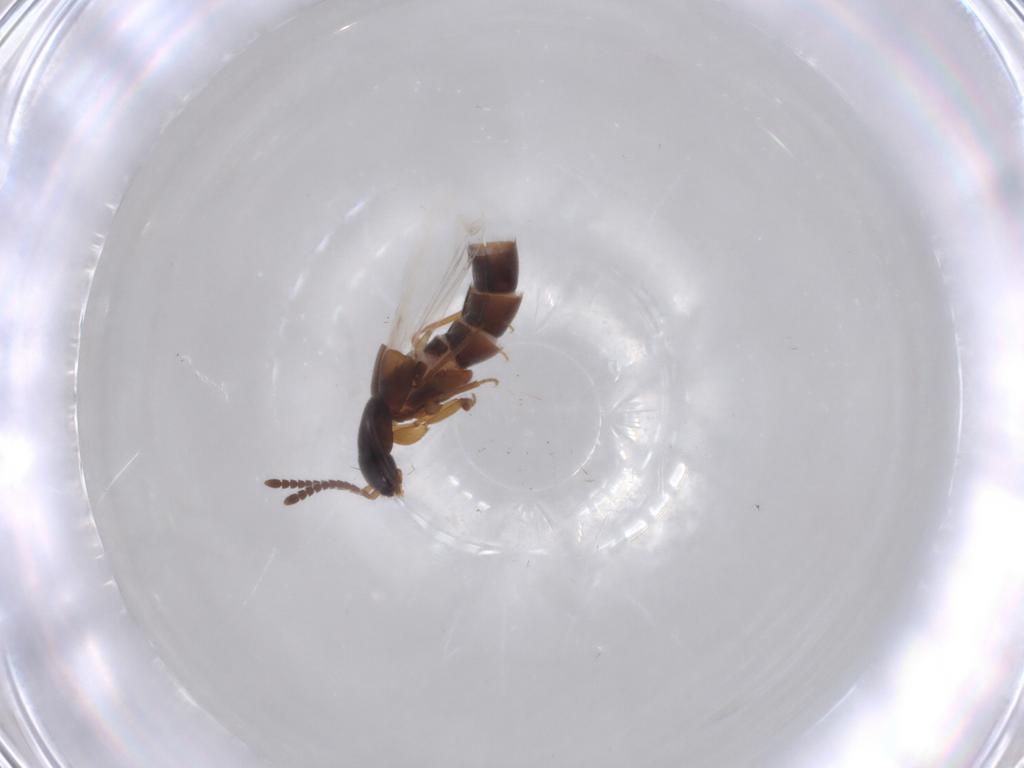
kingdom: Animalia
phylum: Arthropoda
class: Insecta
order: Coleoptera
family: Staphylinidae
